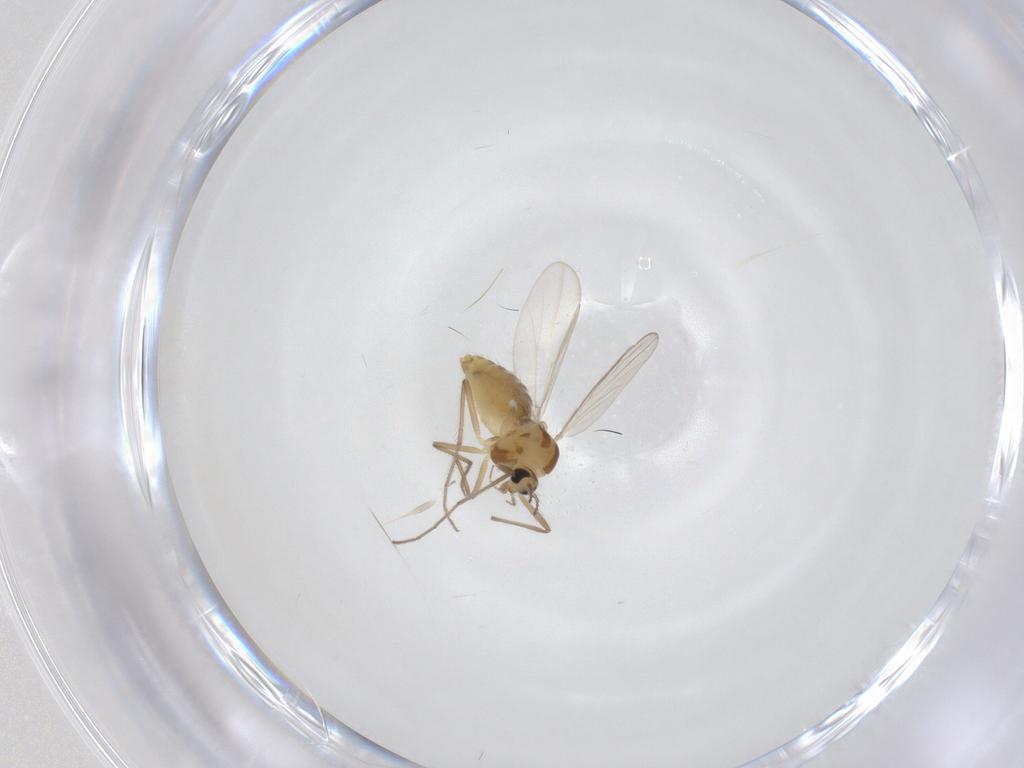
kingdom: Animalia
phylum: Arthropoda
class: Insecta
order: Diptera
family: Chironomidae
